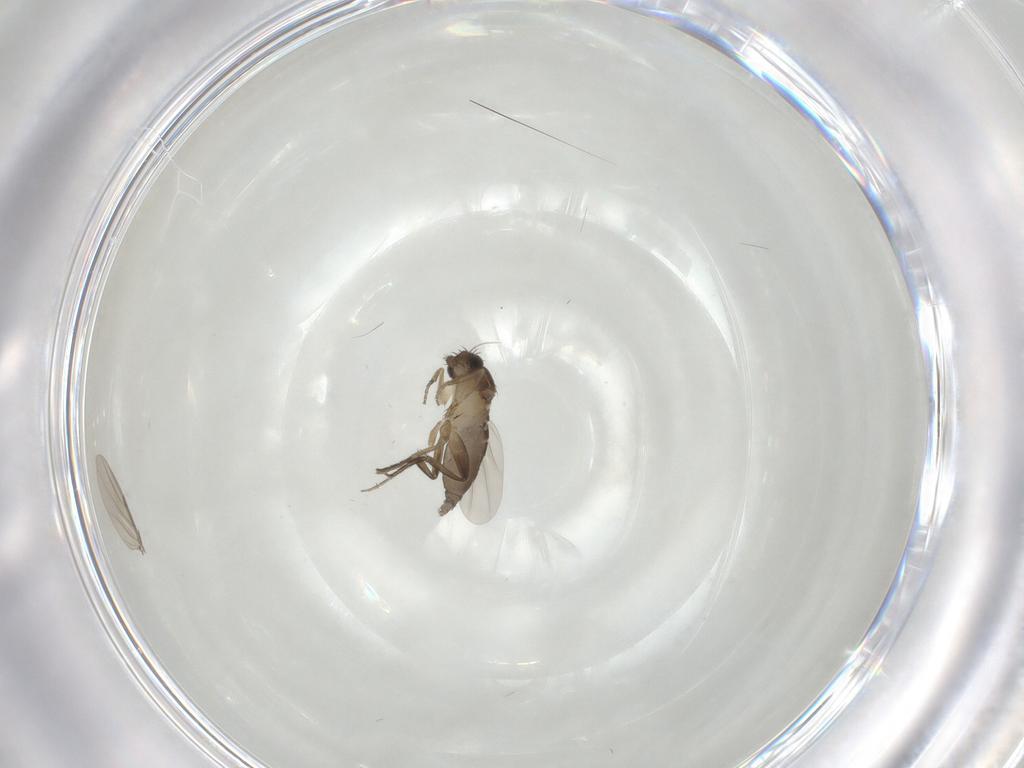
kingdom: Animalia
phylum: Arthropoda
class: Insecta
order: Diptera
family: Phoridae
